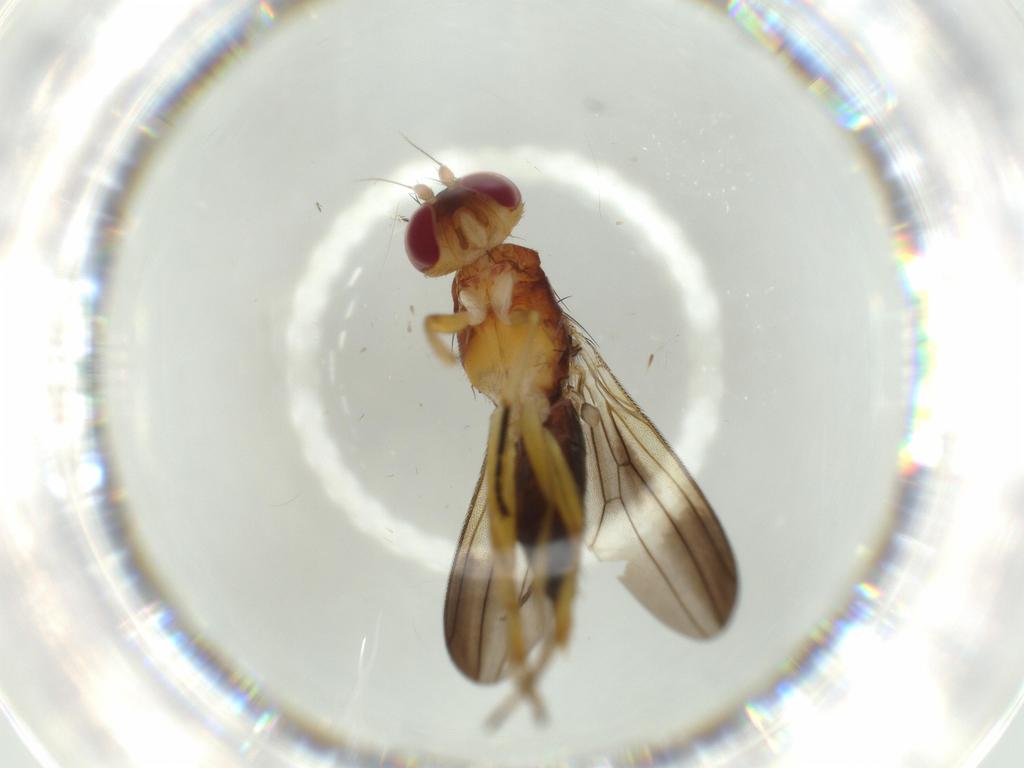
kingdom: Animalia
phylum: Arthropoda
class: Insecta
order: Diptera
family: Clusiidae
